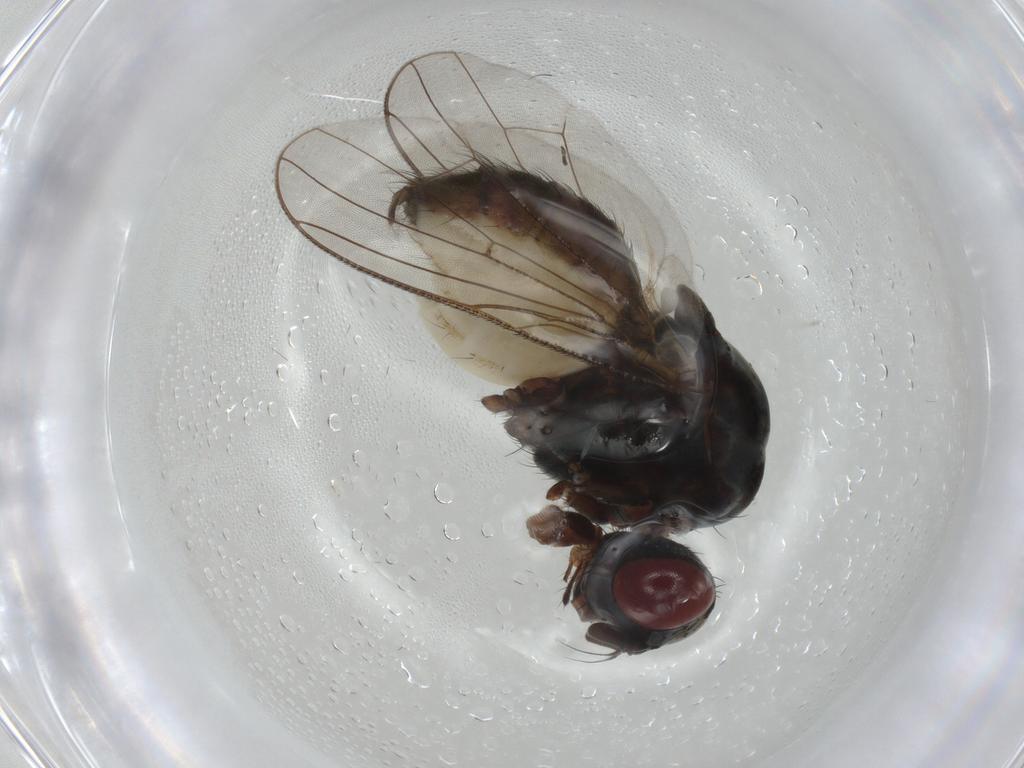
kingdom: Animalia
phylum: Arthropoda
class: Insecta
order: Diptera
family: Anthomyiidae
